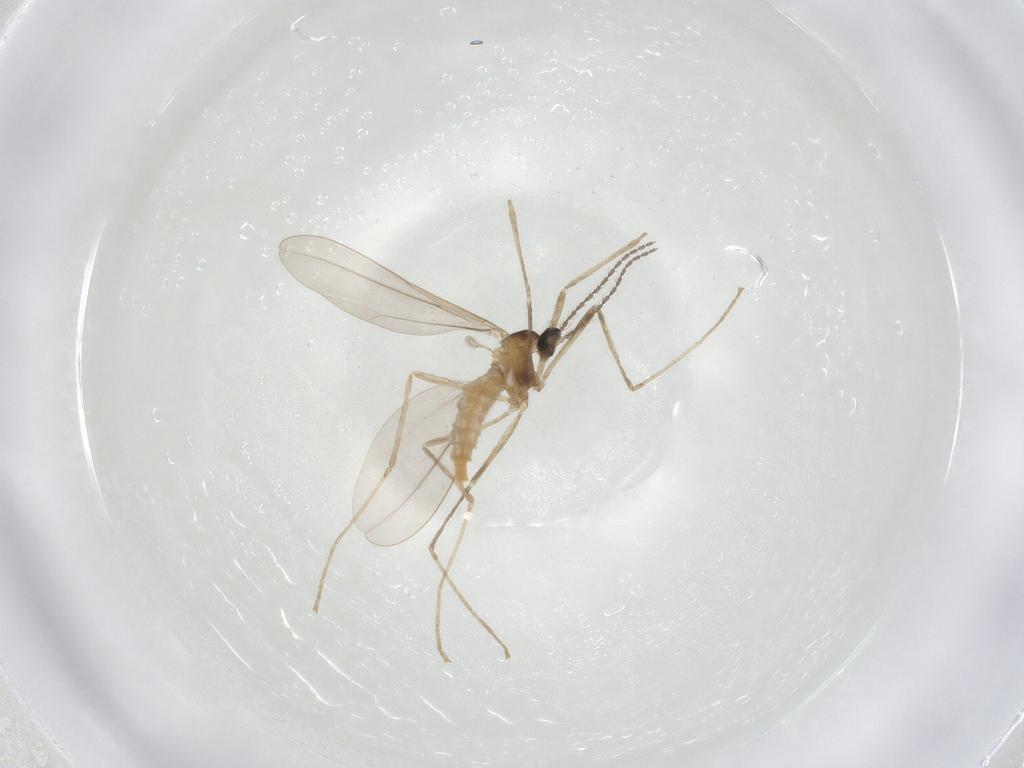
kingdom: Animalia
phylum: Arthropoda
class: Insecta
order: Diptera
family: Cecidomyiidae
